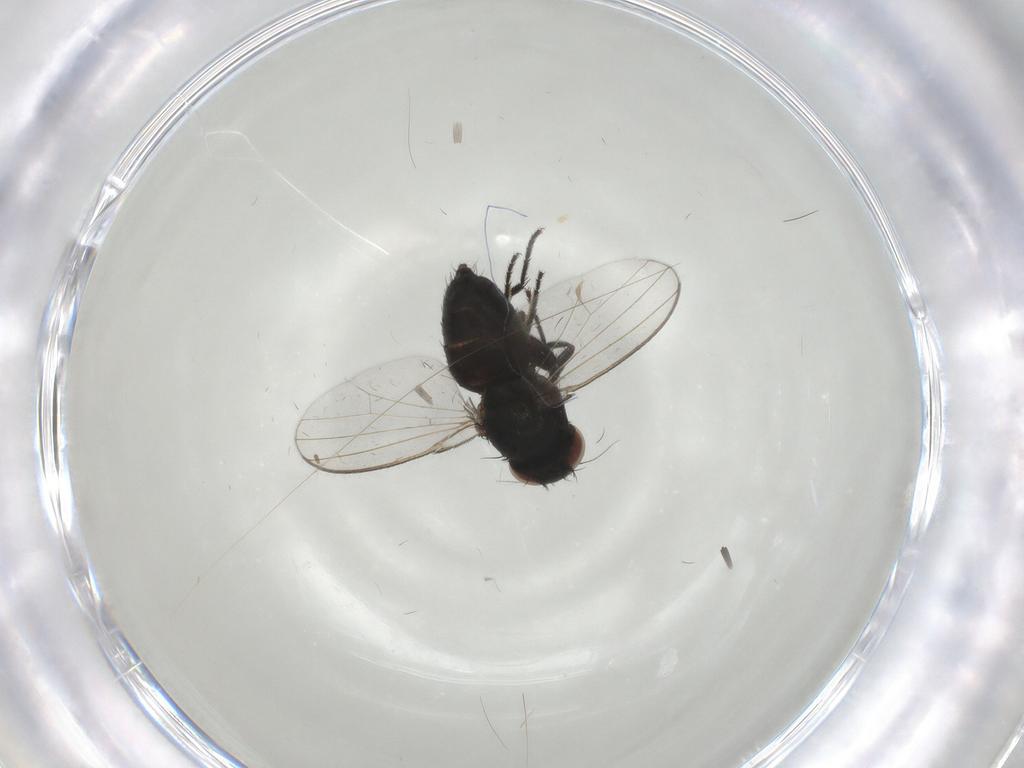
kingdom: Animalia
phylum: Arthropoda
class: Insecta
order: Diptera
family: Milichiidae
